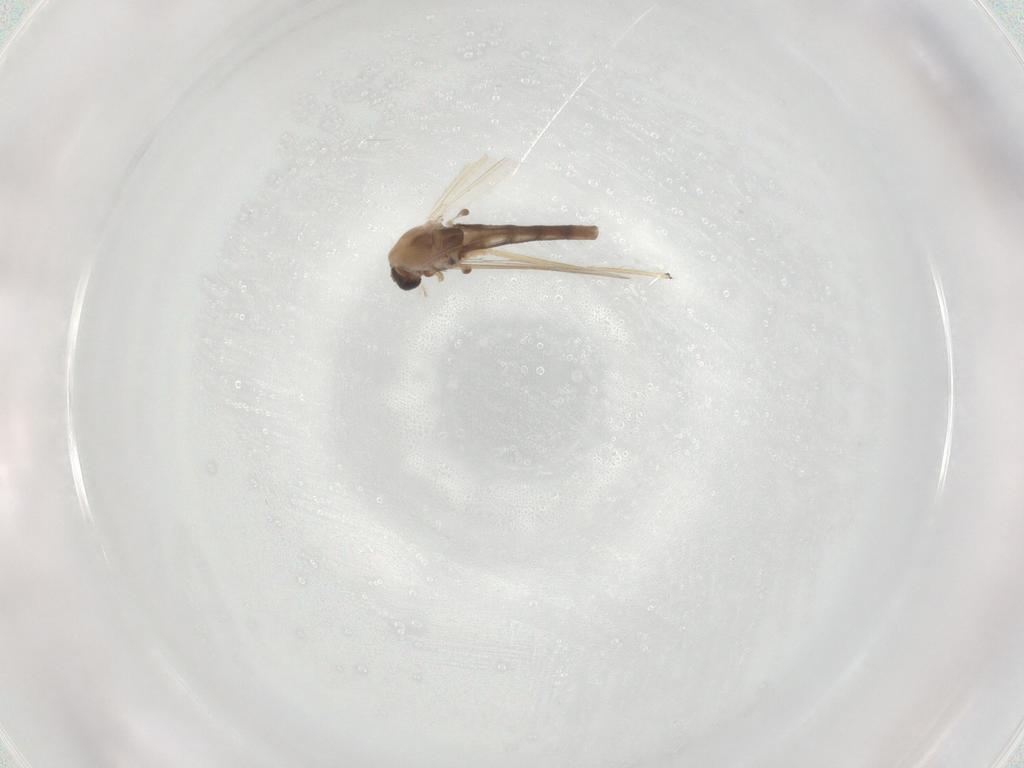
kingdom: Animalia
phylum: Arthropoda
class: Insecta
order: Diptera
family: Chironomidae
